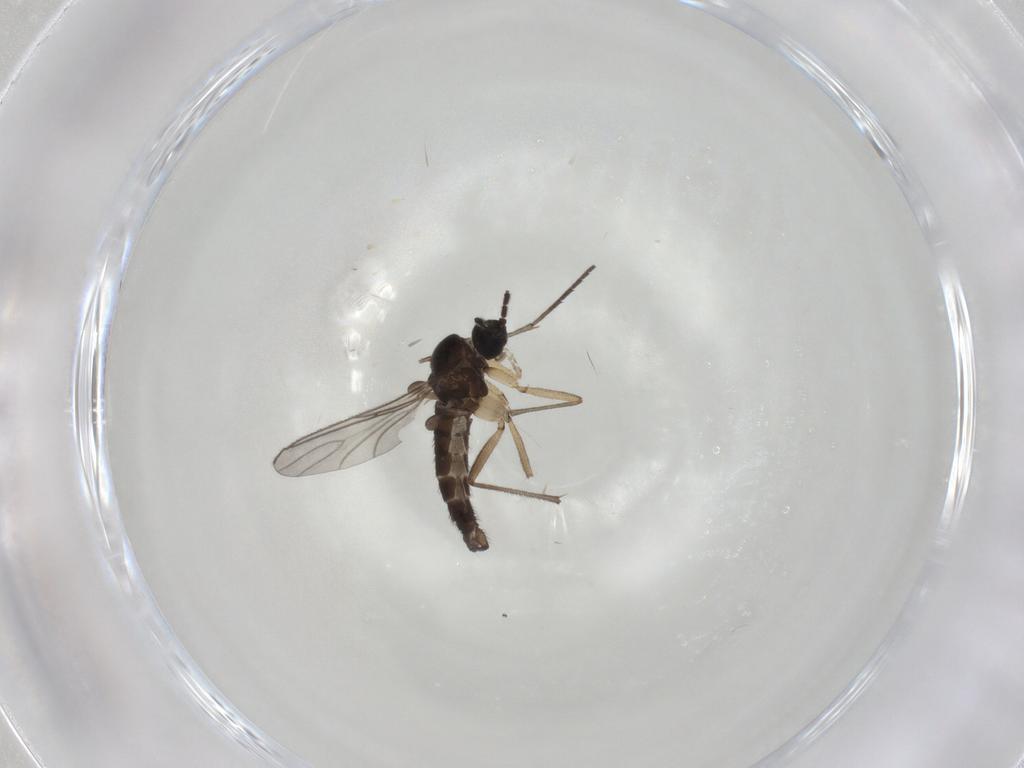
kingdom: Animalia
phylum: Arthropoda
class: Insecta
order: Diptera
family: Sciaridae
